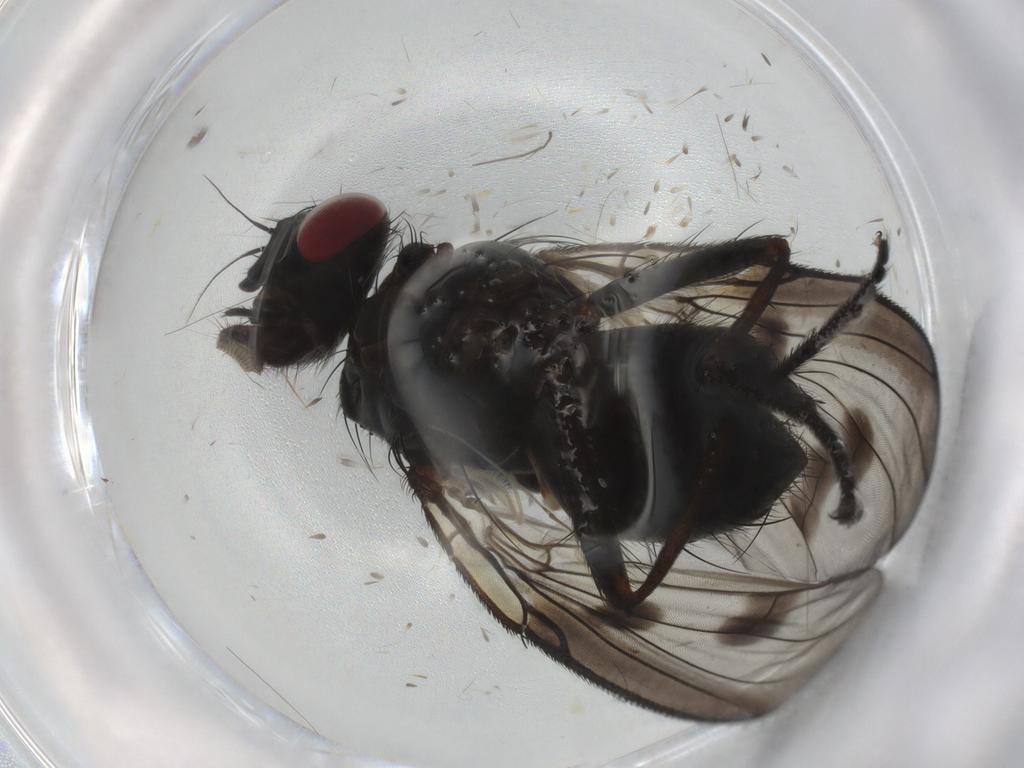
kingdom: Animalia
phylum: Arthropoda
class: Insecta
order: Diptera
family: Muscidae
